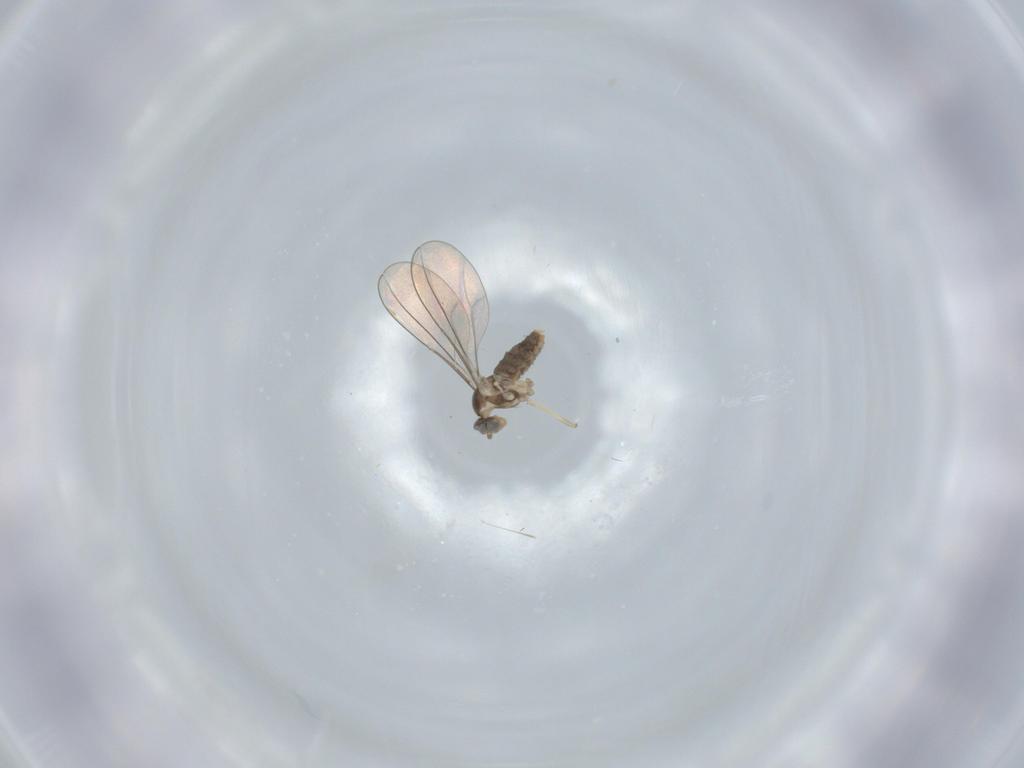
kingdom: Animalia
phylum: Arthropoda
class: Insecta
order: Diptera
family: Cecidomyiidae
